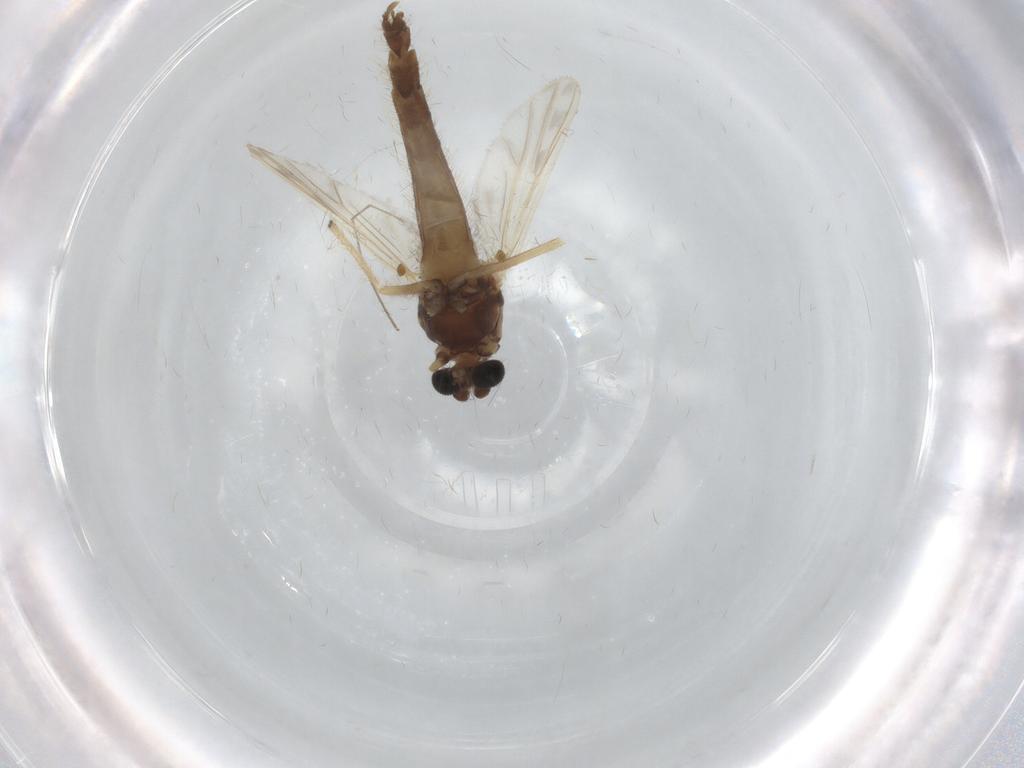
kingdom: Animalia
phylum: Arthropoda
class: Insecta
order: Diptera
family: Chironomidae
